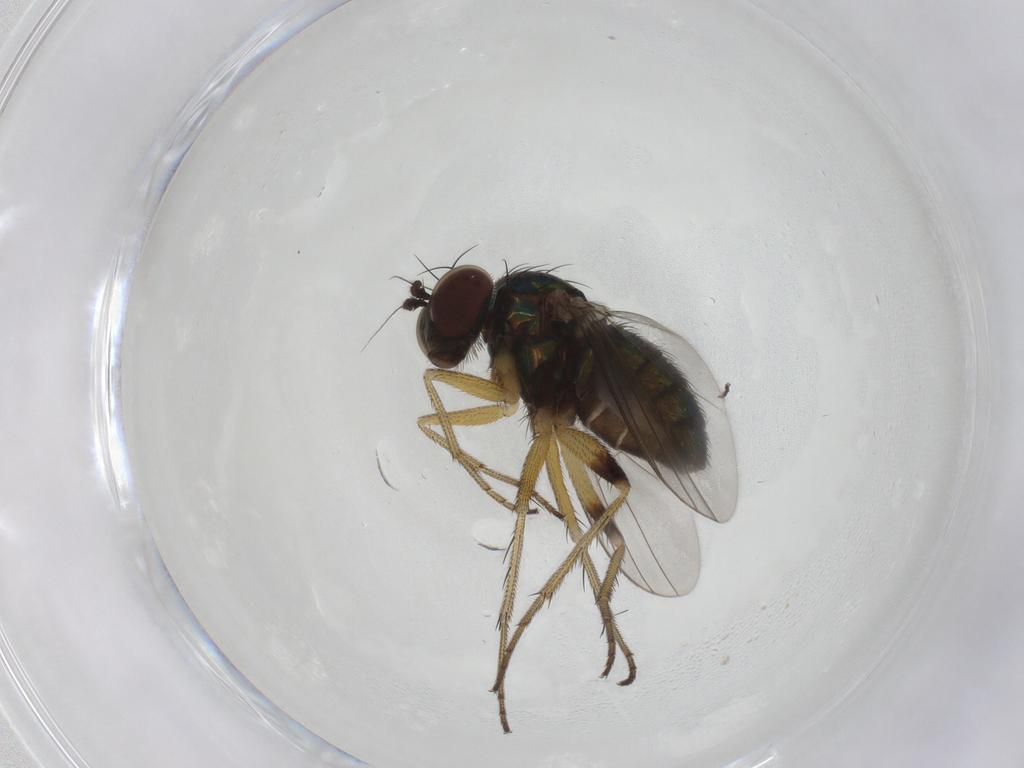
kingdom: Animalia
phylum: Arthropoda
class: Insecta
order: Diptera
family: Dolichopodidae
